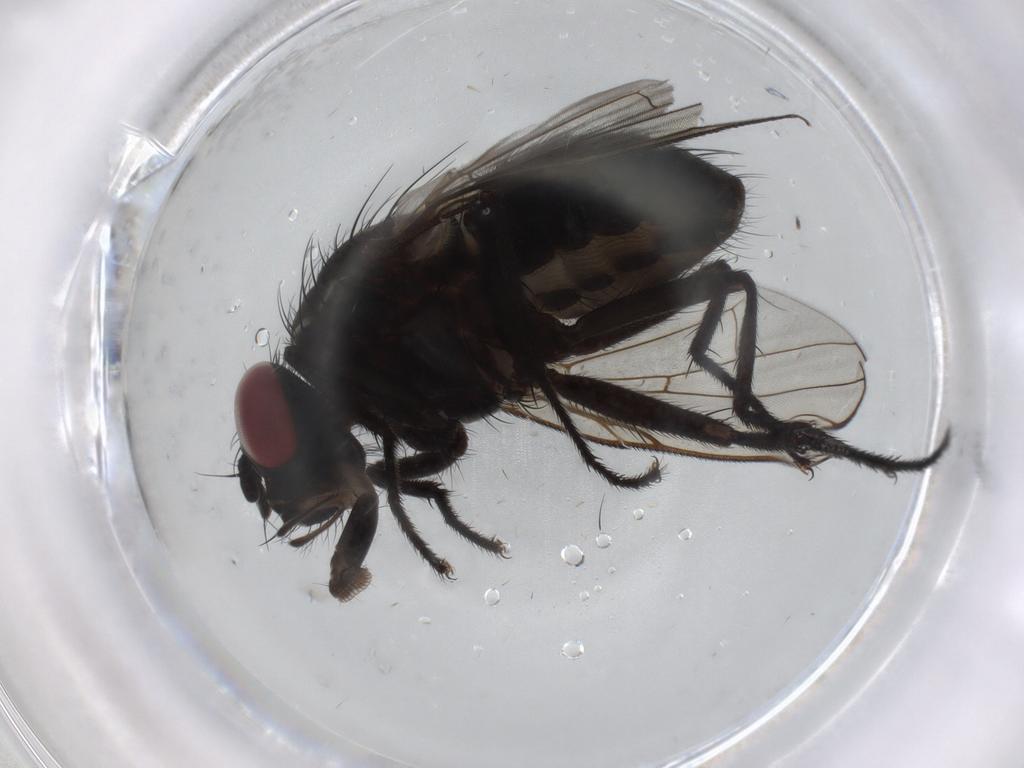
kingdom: Animalia
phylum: Arthropoda
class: Insecta
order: Diptera
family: Muscidae
